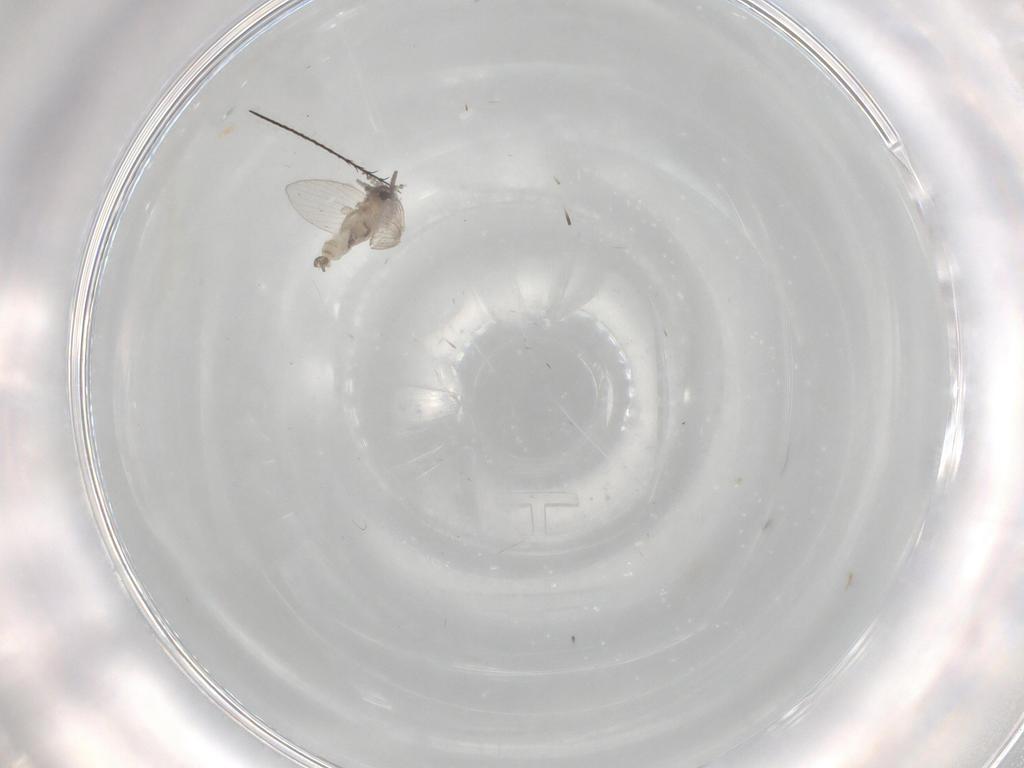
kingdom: Animalia
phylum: Arthropoda
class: Insecta
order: Diptera
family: Psychodidae
